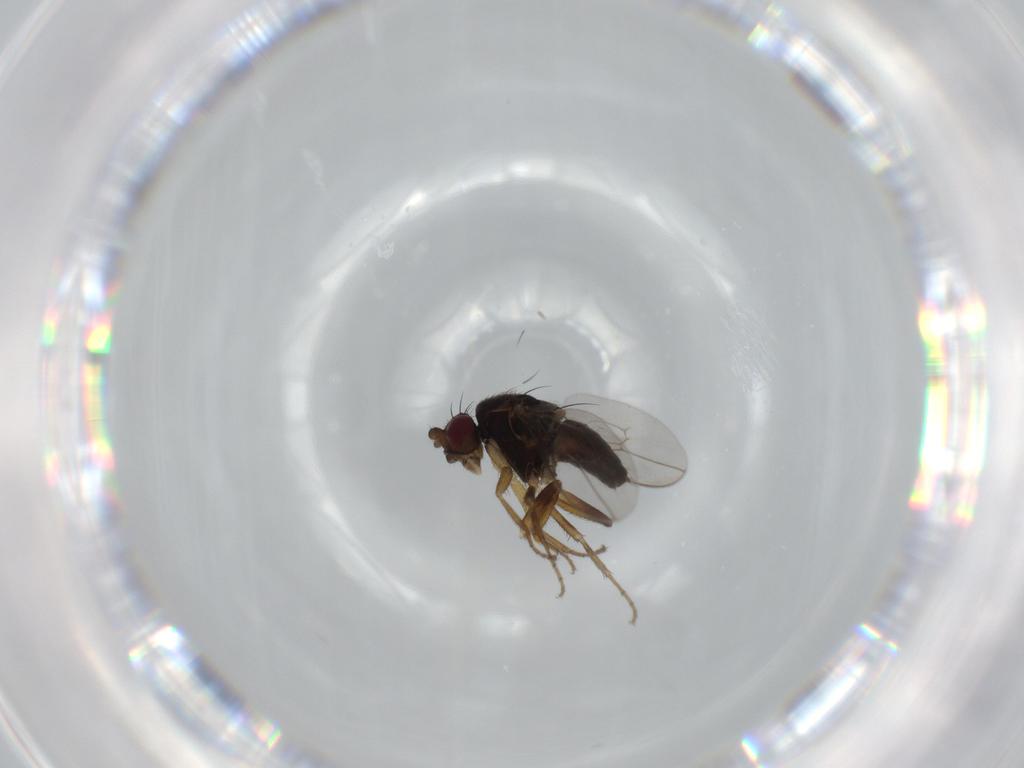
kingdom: Animalia
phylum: Arthropoda
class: Insecta
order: Diptera
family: Sphaeroceridae
